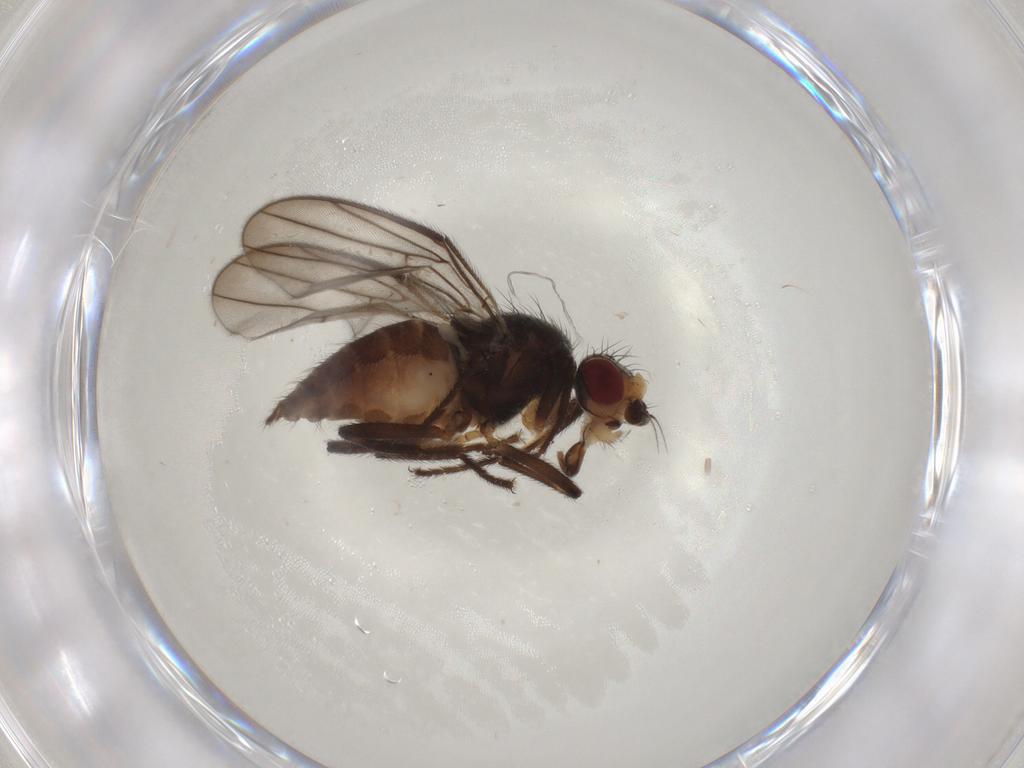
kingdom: Animalia
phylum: Arthropoda
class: Insecta
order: Diptera
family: Chloropidae
